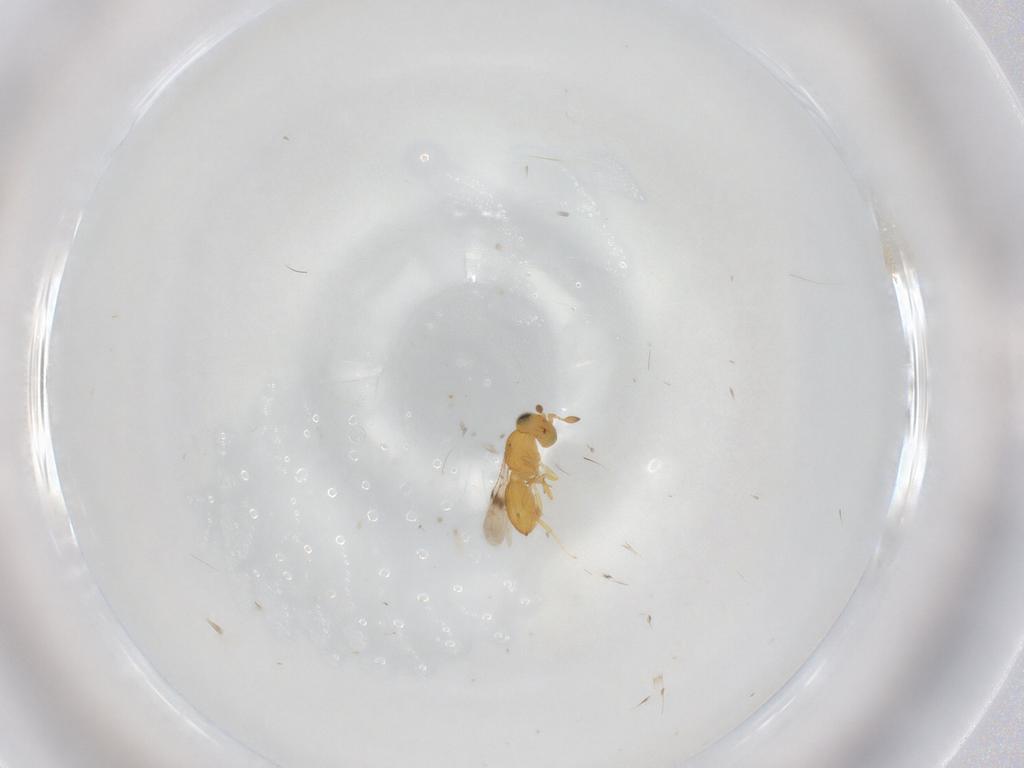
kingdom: Animalia
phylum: Arthropoda
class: Insecta
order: Hymenoptera
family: Scelionidae
